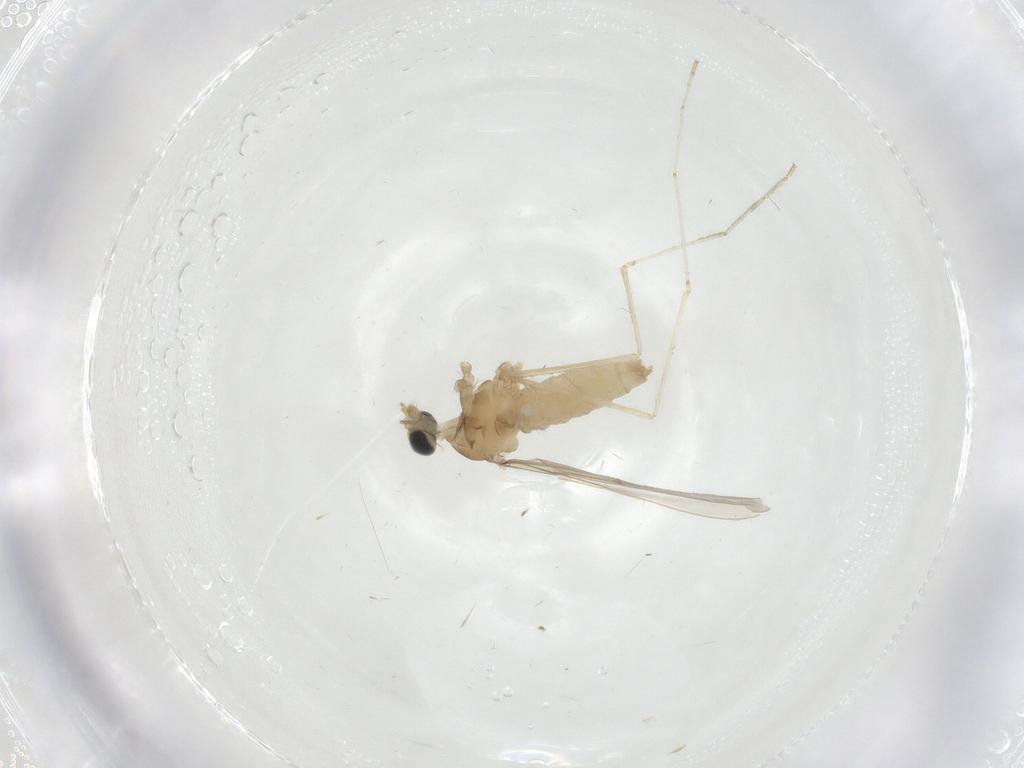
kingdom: Animalia
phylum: Arthropoda
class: Insecta
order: Diptera
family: Cecidomyiidae
